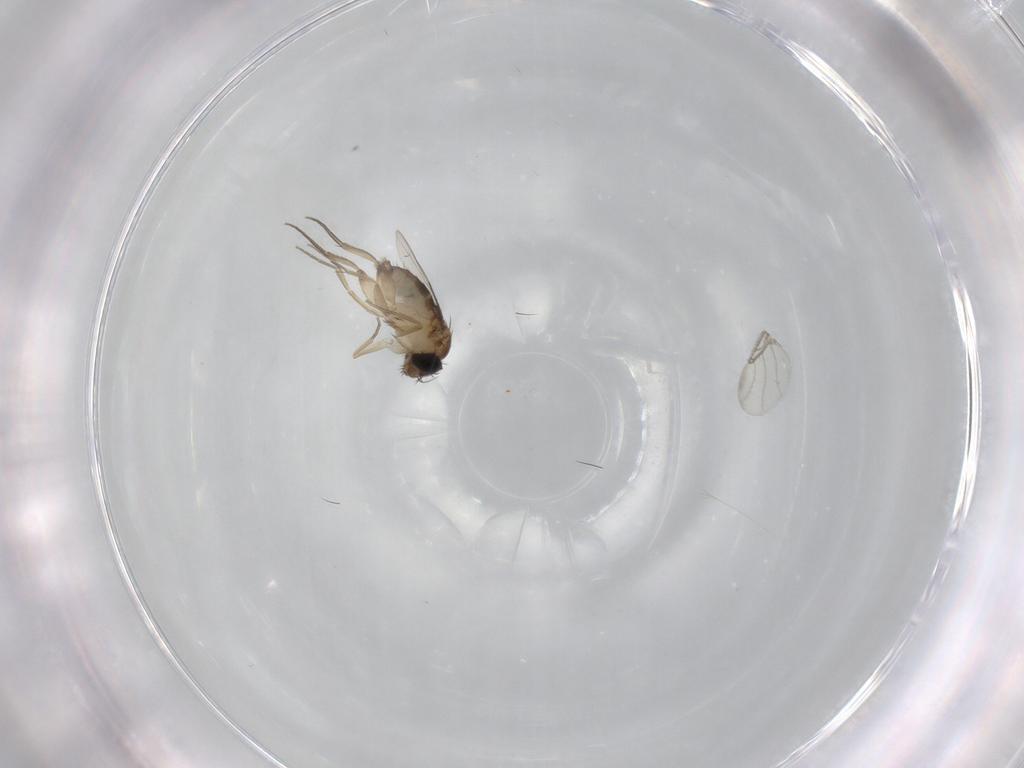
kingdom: Animalia
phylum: Arthropoda
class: Insecta
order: Diptera
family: Phoridae
